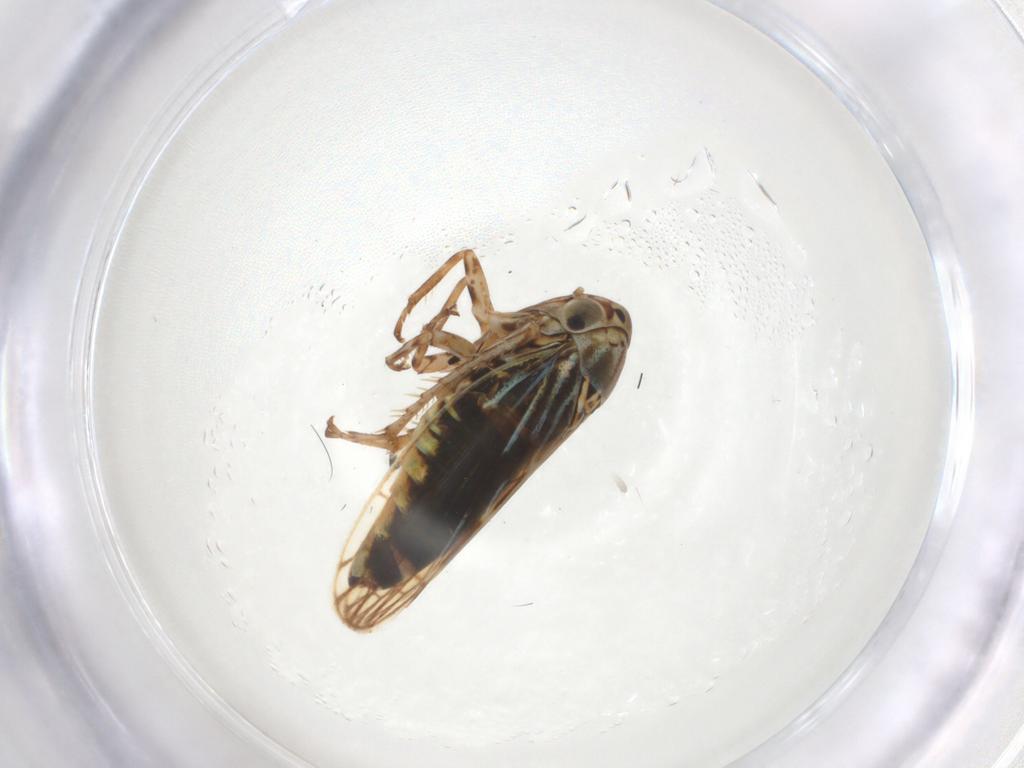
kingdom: Animalia
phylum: Arthropoda
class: Insecta
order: Hemiptera
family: Cicadellidae
